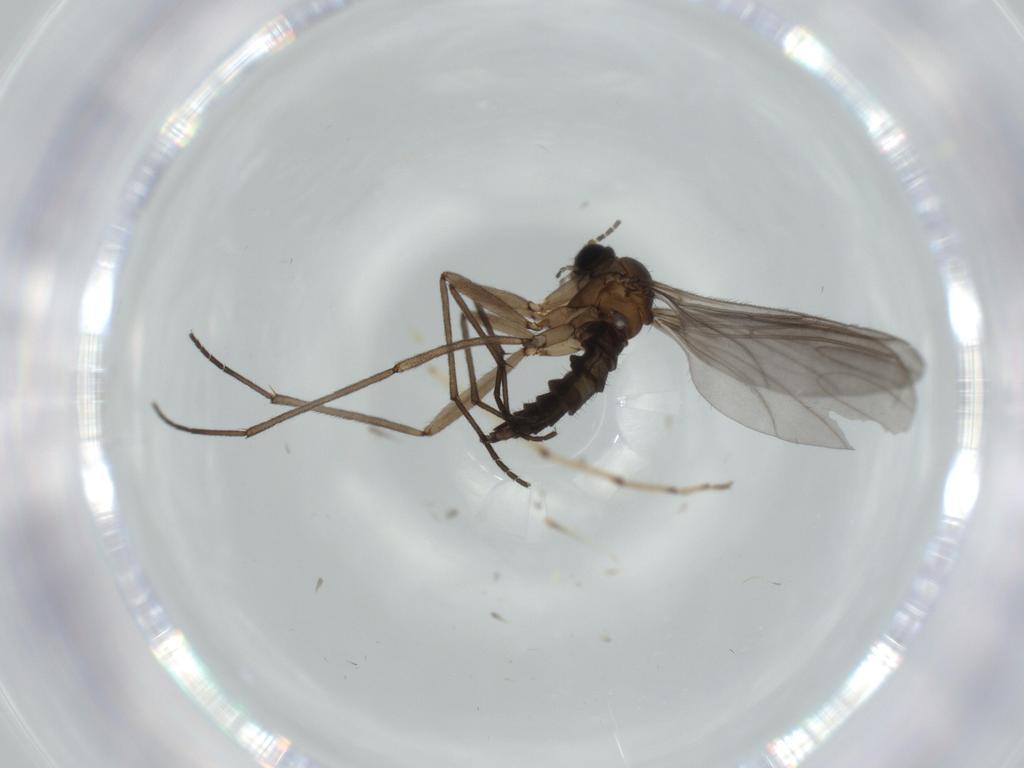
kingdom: Animalia
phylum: Arthropoda
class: Insecta
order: Diptera
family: Sciaridae
